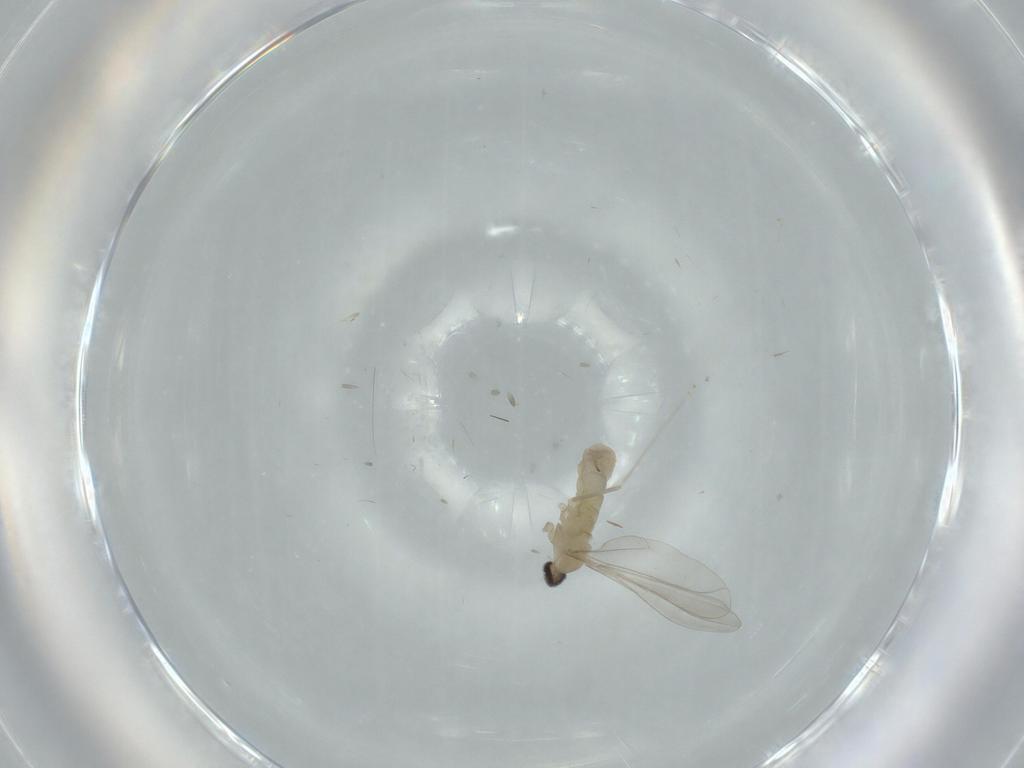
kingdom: Animalia
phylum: Arthropoda
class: Insecta
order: Diptera
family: Cecidomyiidae
